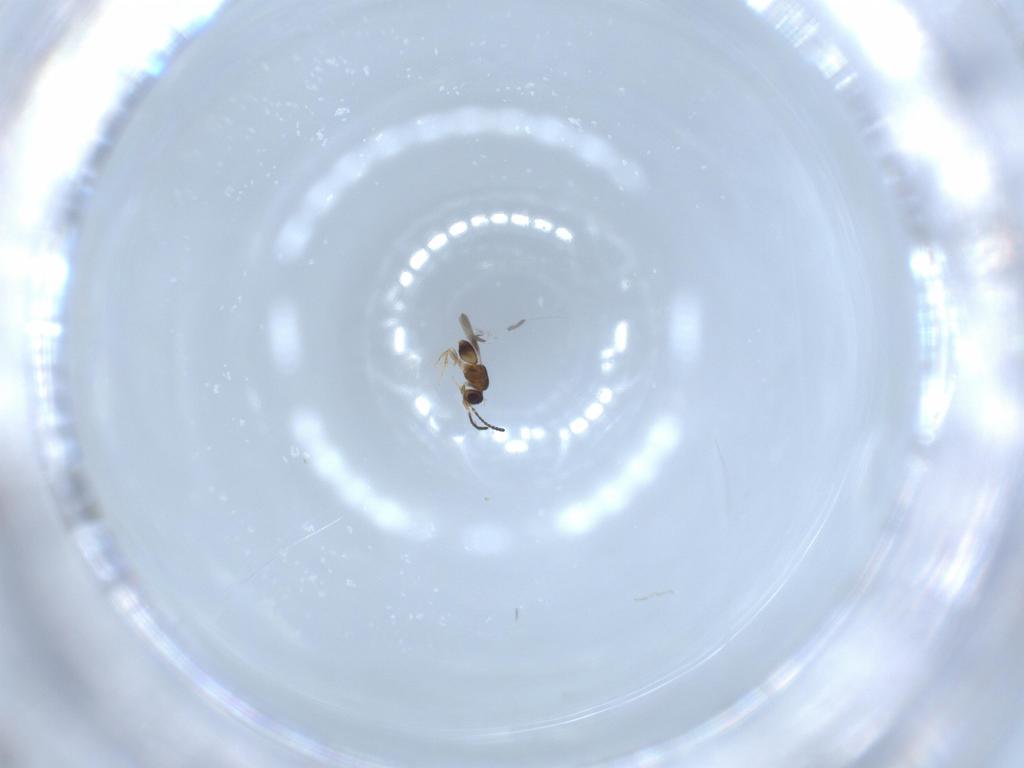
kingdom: Animalia
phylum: Arthropoda
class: Insecta
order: Hymenoptera
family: Ceraphronidae
